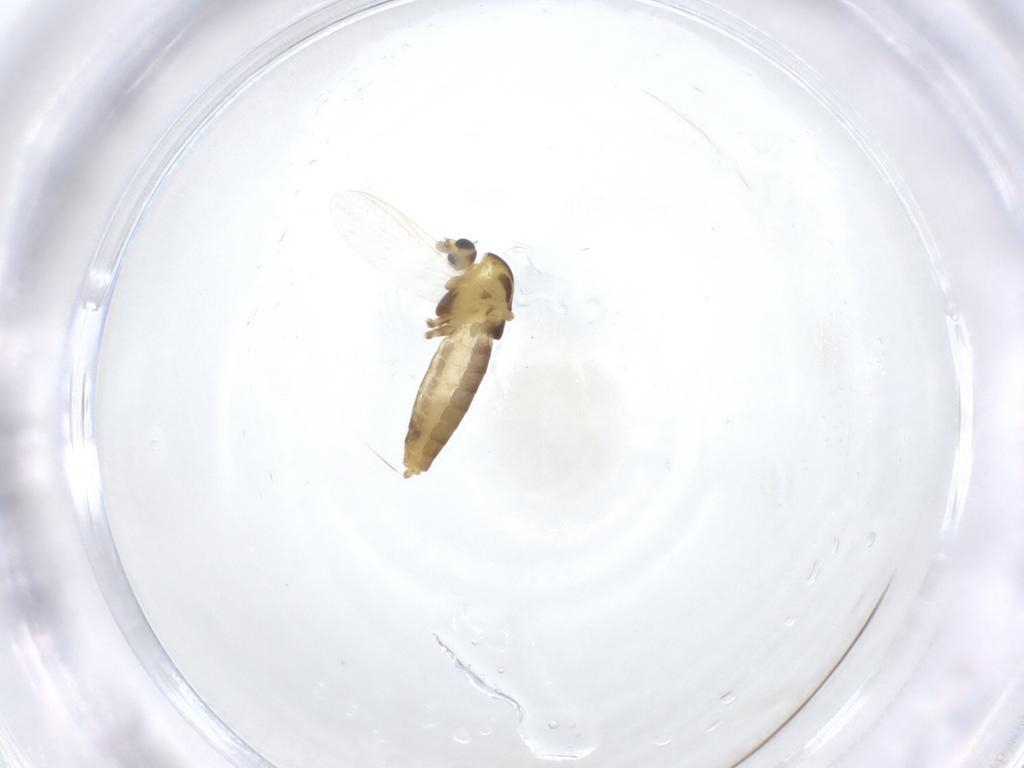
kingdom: Animalia
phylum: Arthropoda
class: Insecta
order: Diptera
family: Chironomidae
